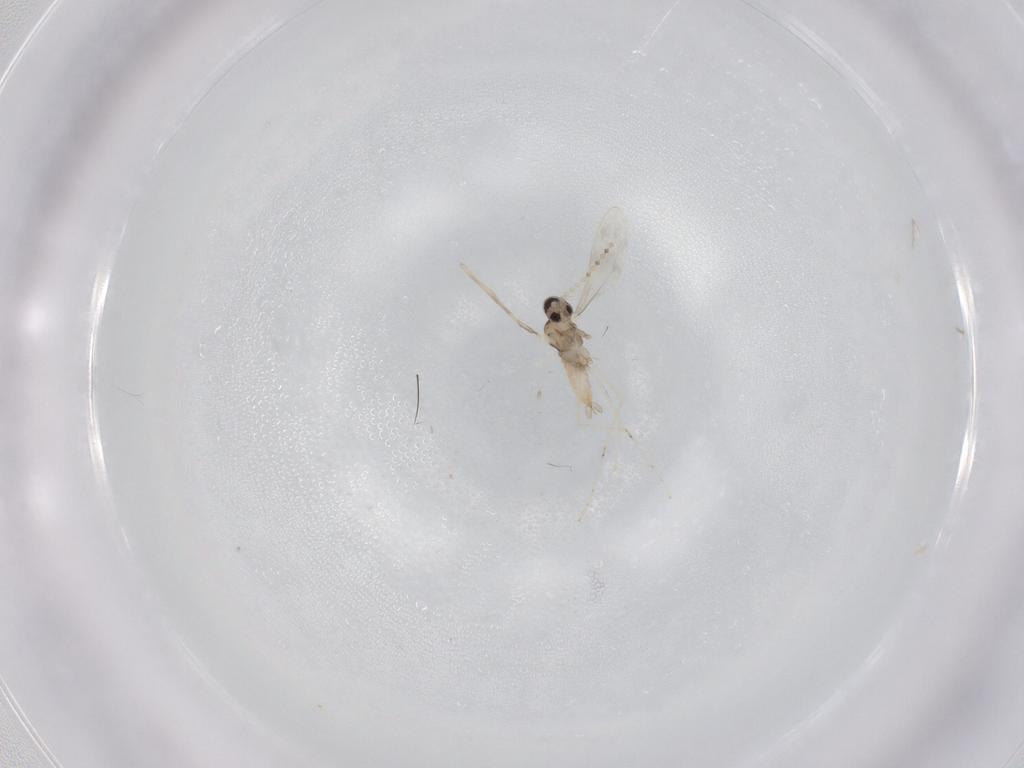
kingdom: Animalia
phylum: Arthropoda
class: Insecta
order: Diptera
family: Cecidomyiidae
